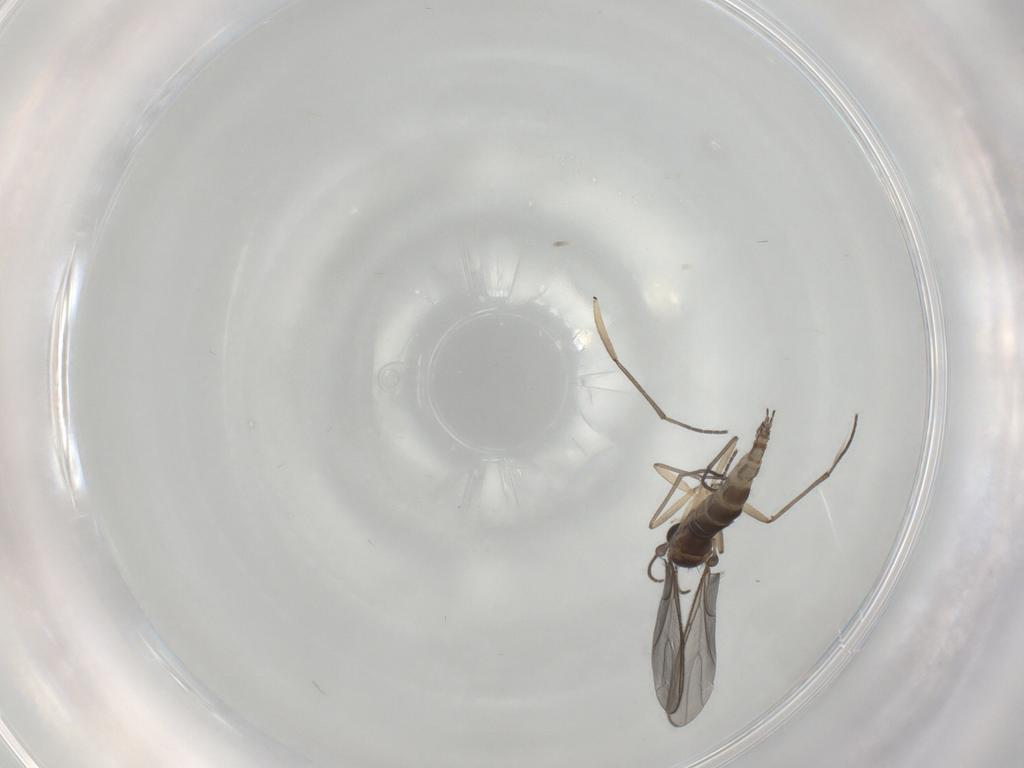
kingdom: Animalia
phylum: Arthropoda
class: Insecta
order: Diptera
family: Sciaridae
